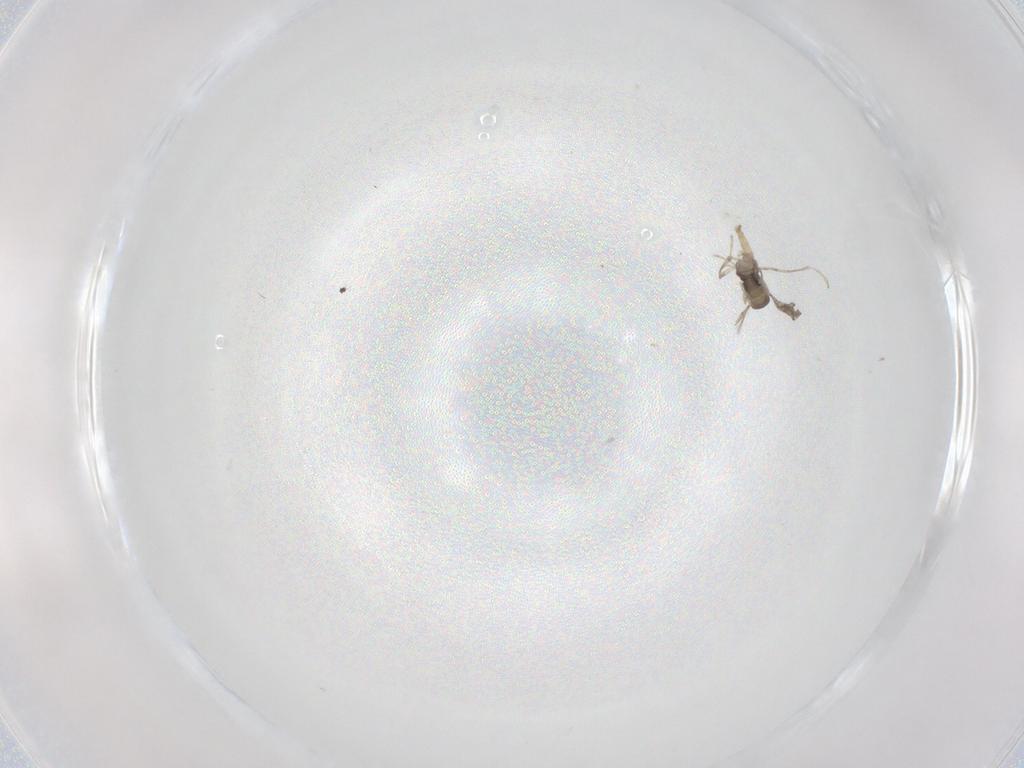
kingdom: Animalia
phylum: Arthropoda
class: Insecta
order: Diptera
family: Cecidomyiidae
